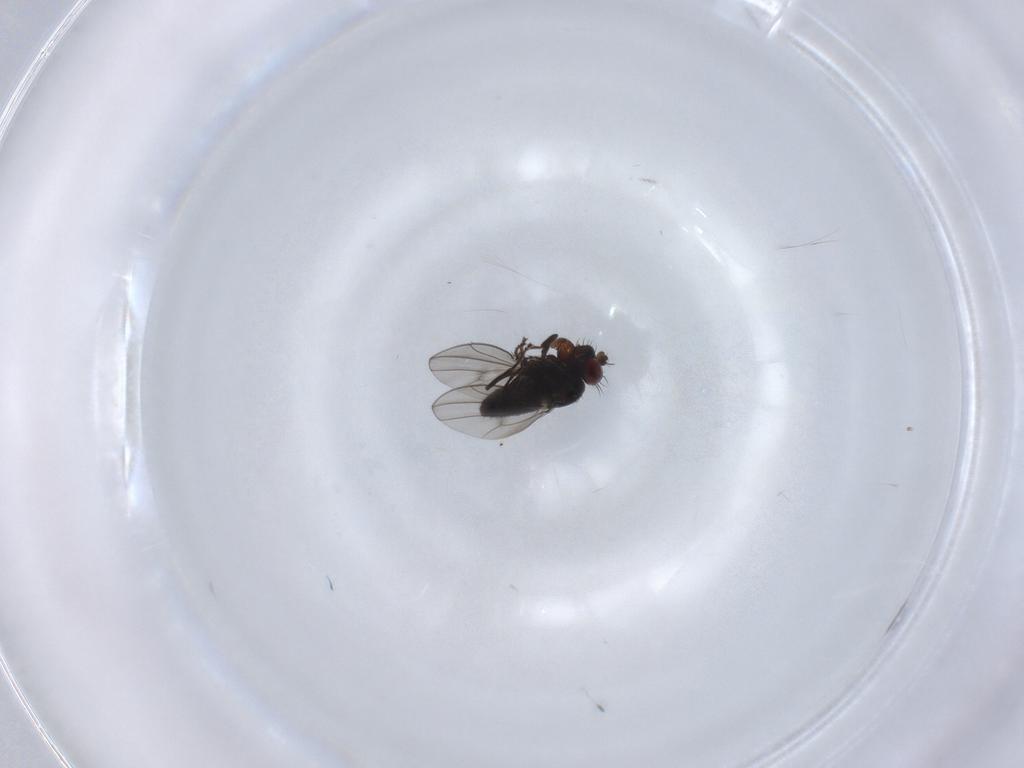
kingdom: Animalia
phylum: Arthropoda
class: Insecta
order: Diptera
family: Ephydridae
